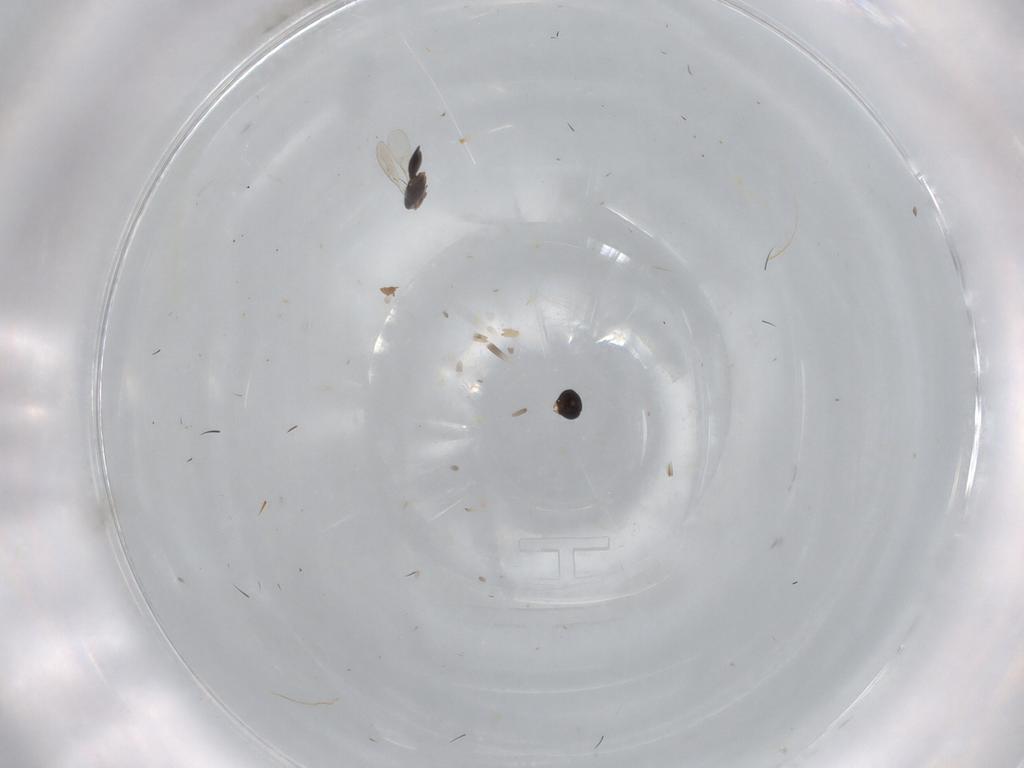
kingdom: Animalia
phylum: Arthropoda
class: Insecta
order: Hymenoptera
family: Scelionidae
